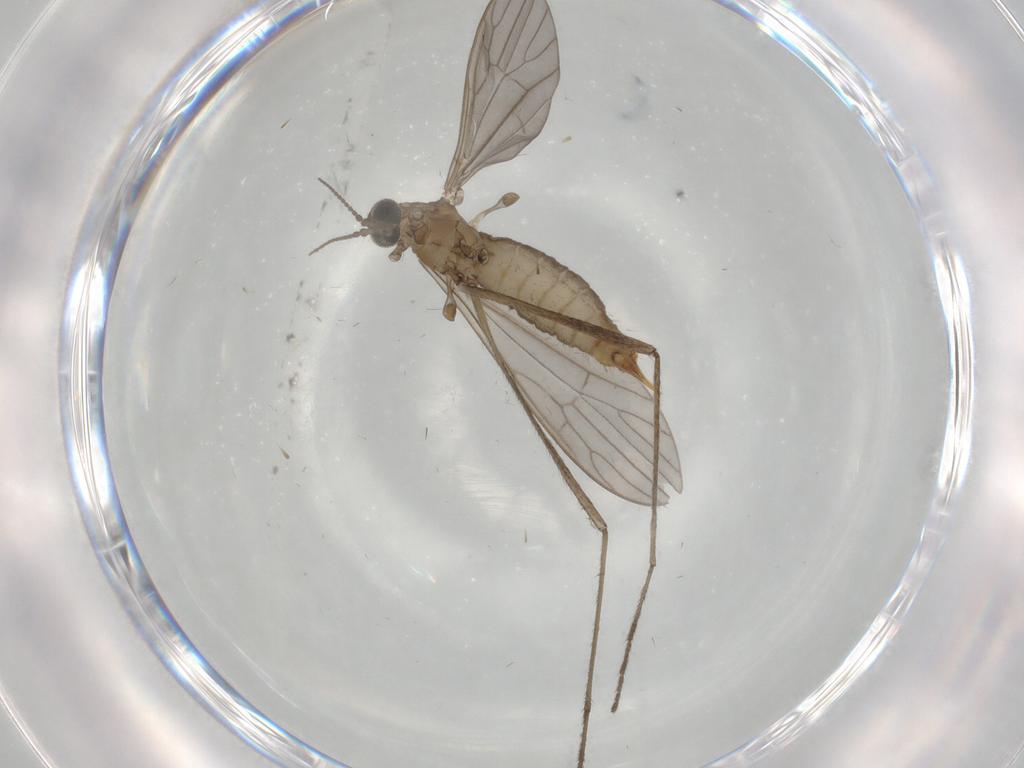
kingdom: Animalia
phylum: Arthropoda
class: Insecta
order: Diptera
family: Limoniidae
